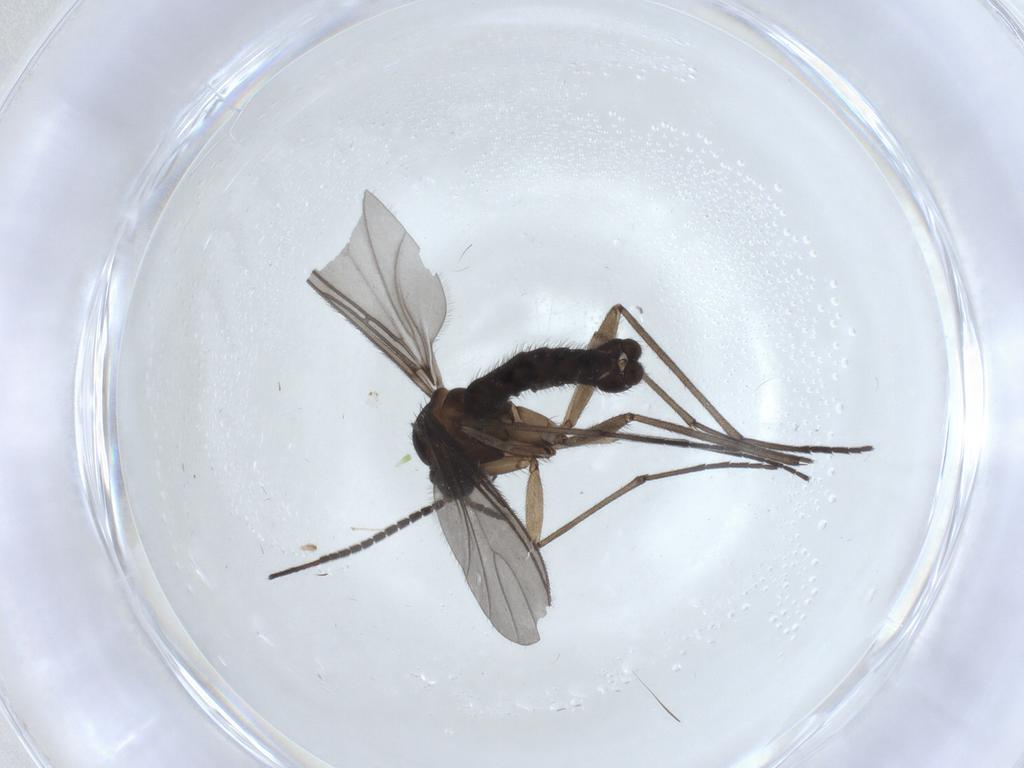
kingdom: Animalia
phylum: Arthropoda
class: Insecta
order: Diptera
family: Sciaridae
